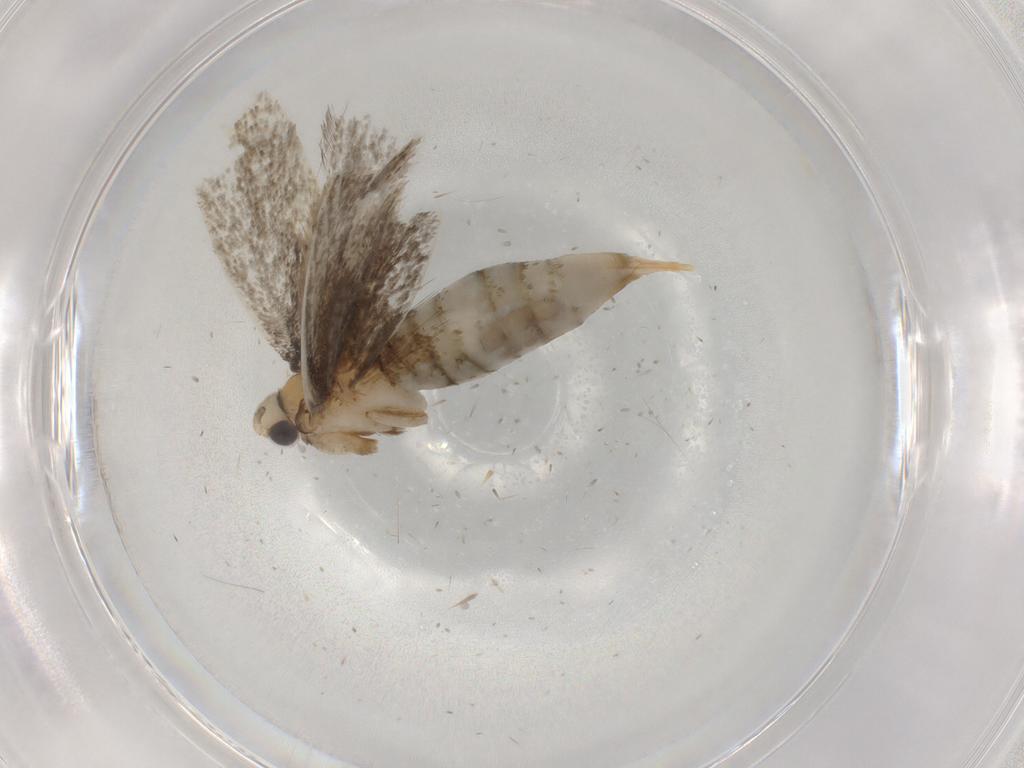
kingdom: Animalia
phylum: Arthropoda
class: Insecta
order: Lepidoptera
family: Tineidae
